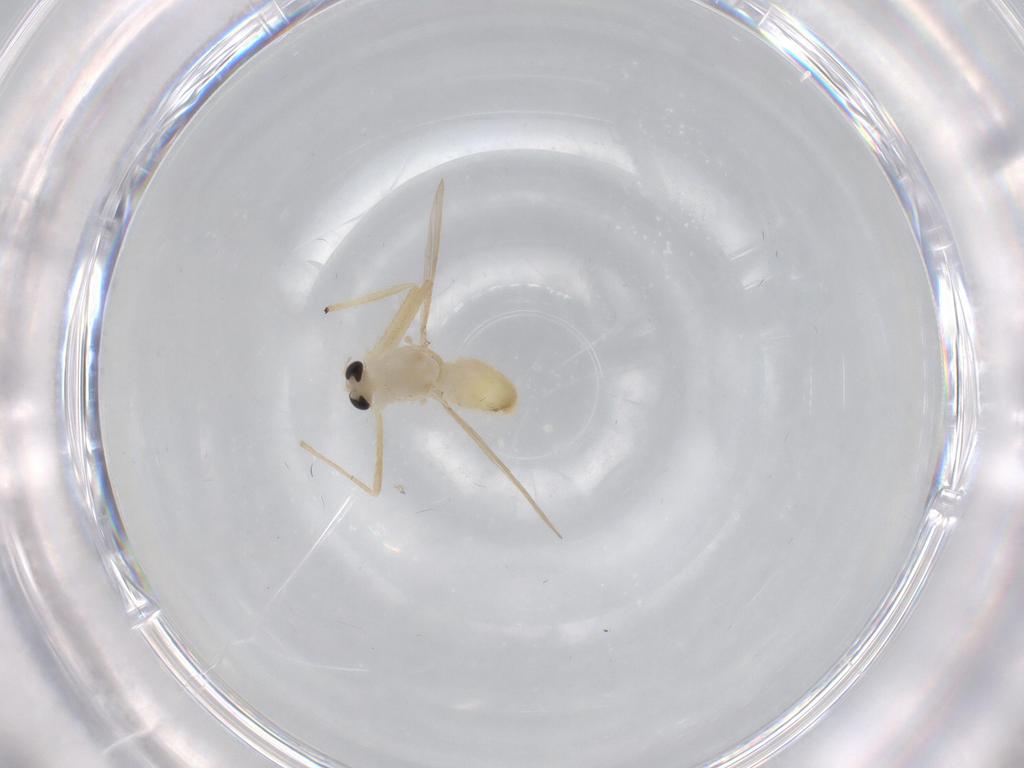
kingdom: Animalia
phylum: Arthropoda
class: Insecta
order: Diptera
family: Chironomidae
